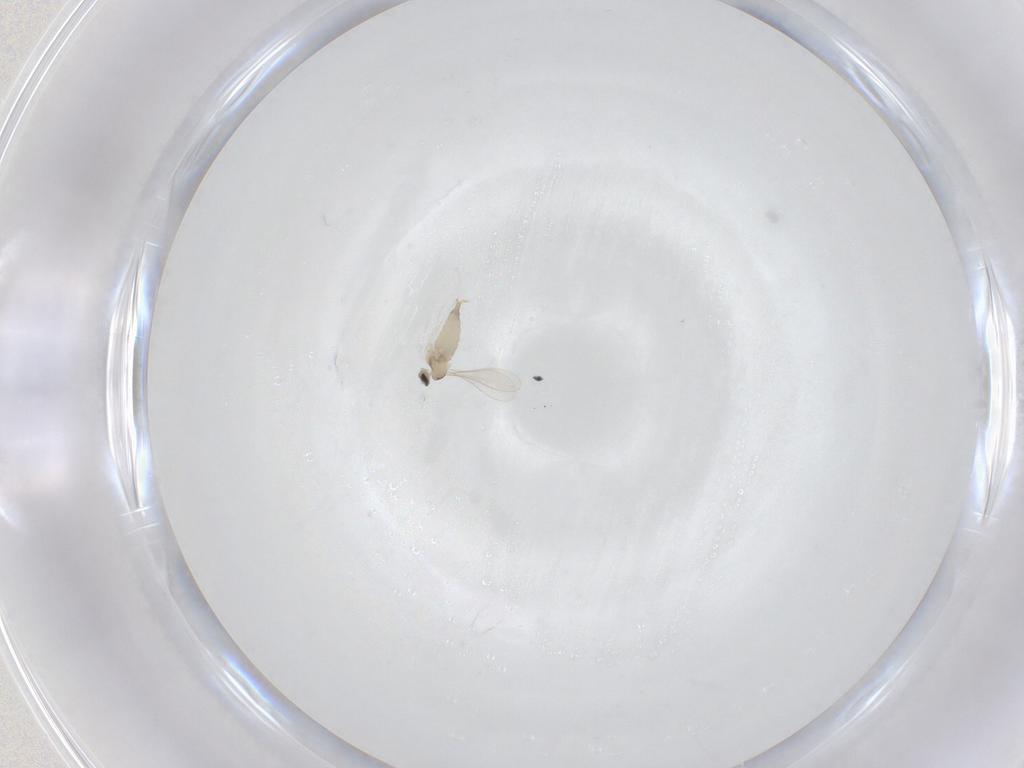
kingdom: Animalia
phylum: Arthropoda
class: Insecta
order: Diptera
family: Cecidomyiidae
